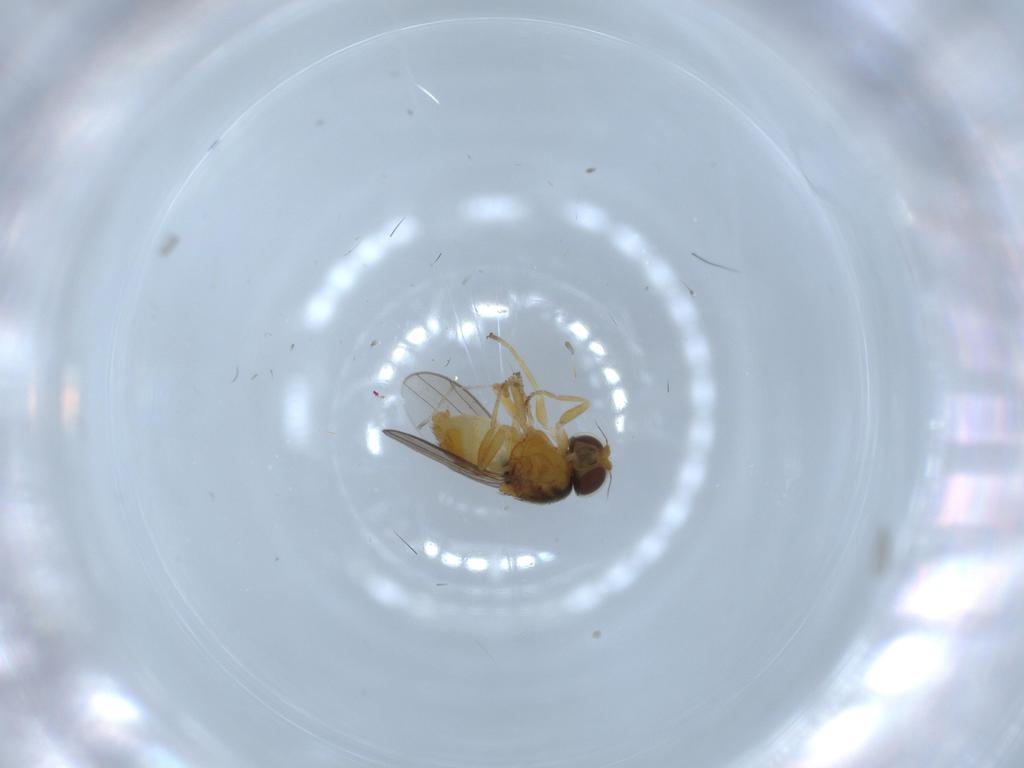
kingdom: Animalia
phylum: Arthropoda
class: Insecta
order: Diptera
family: Chloropidae
